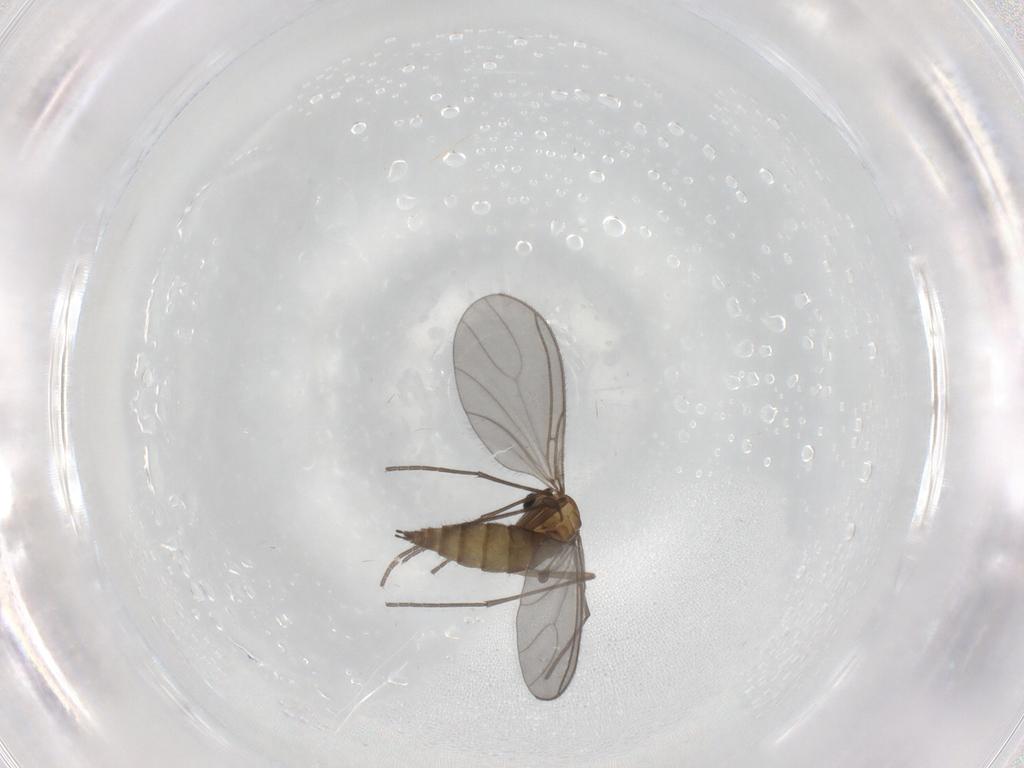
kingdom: Animalia
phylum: Arthropoda
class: Insecta
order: Diptera
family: Sciaridae
